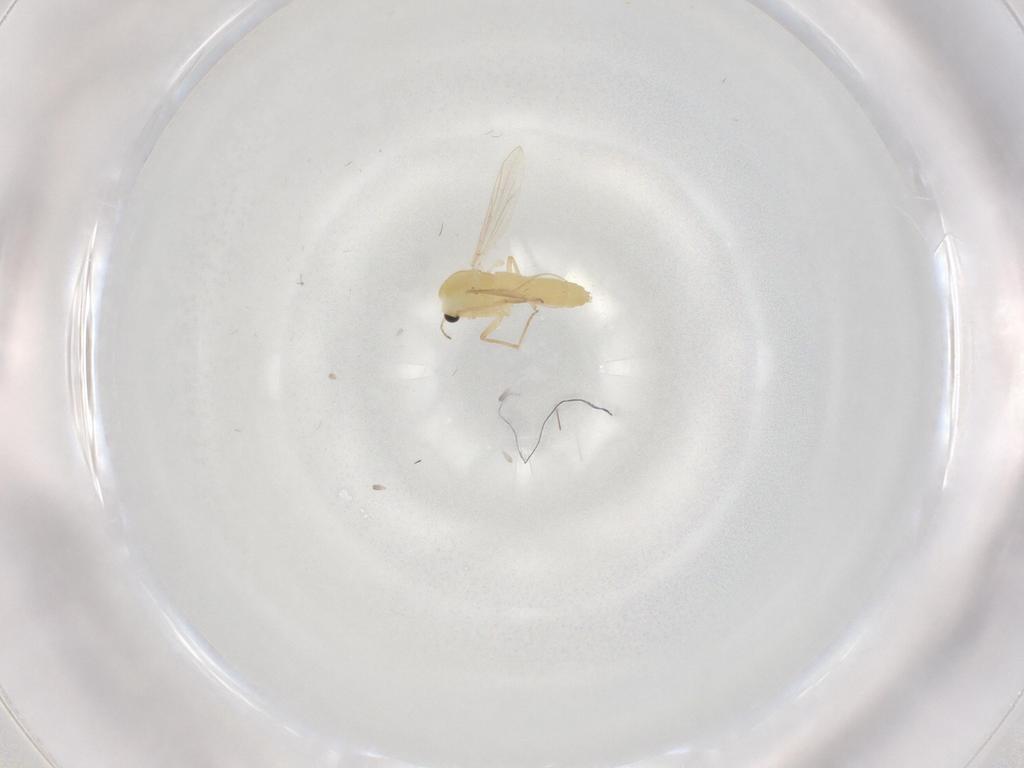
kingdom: Animalia
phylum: Arthropoda
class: Insecta
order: Diptera
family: Chironomidae
